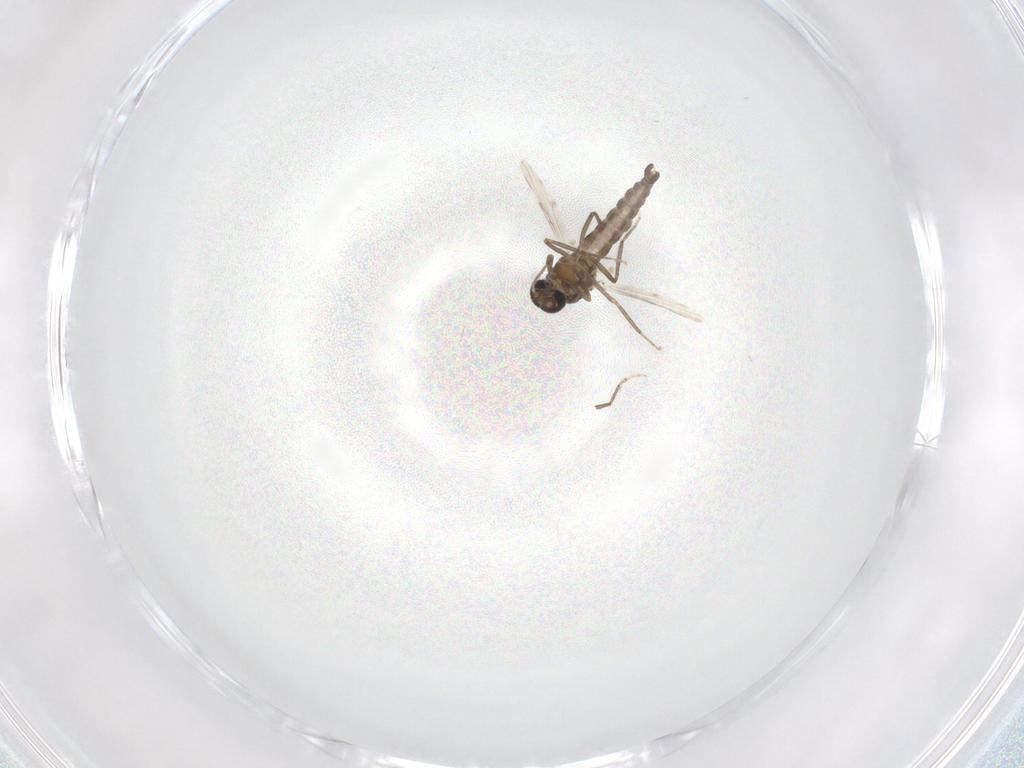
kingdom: Animalia
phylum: Arthropoda
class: Insecta
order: Diptera
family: Ceratopogonidae
